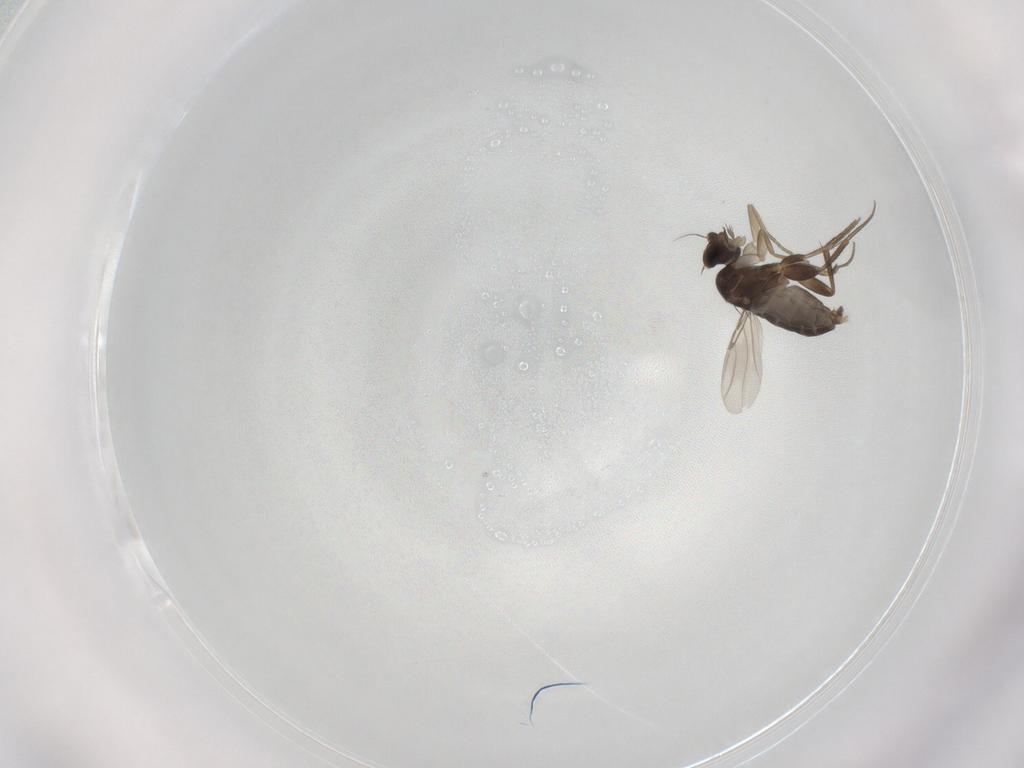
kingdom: Animalia
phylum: Arthropoda
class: Insecta
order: Diptera
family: Phoridae
